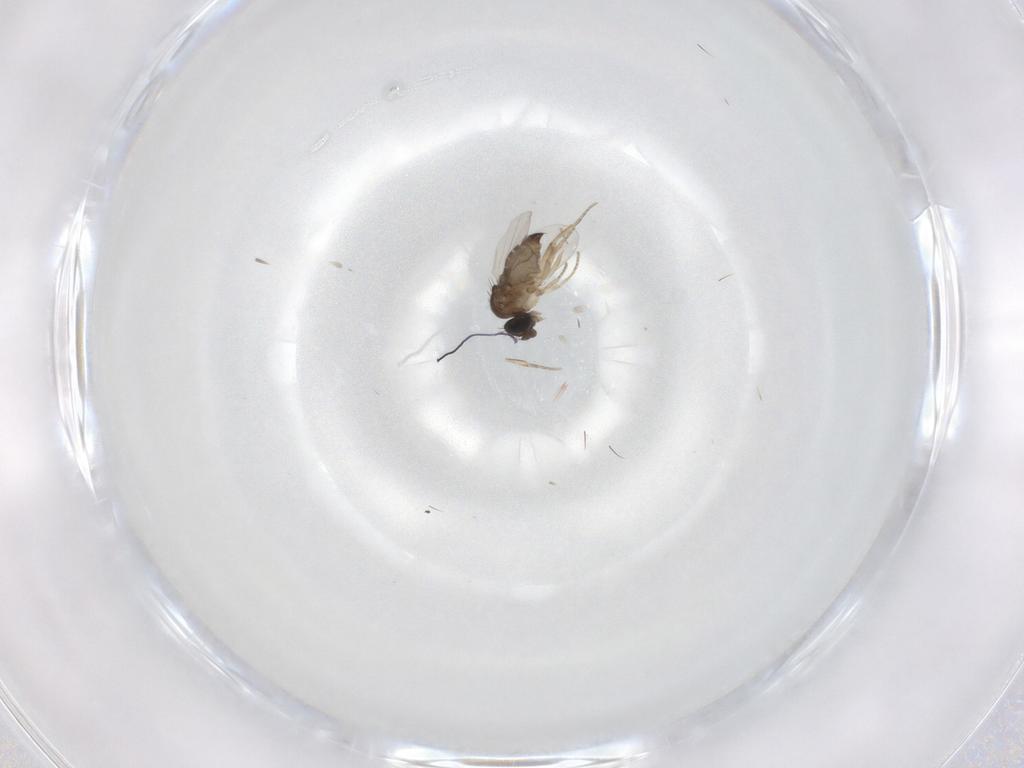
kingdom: Animalia
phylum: Arthropoda
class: Insecta
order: Diptera
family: Phoridae
